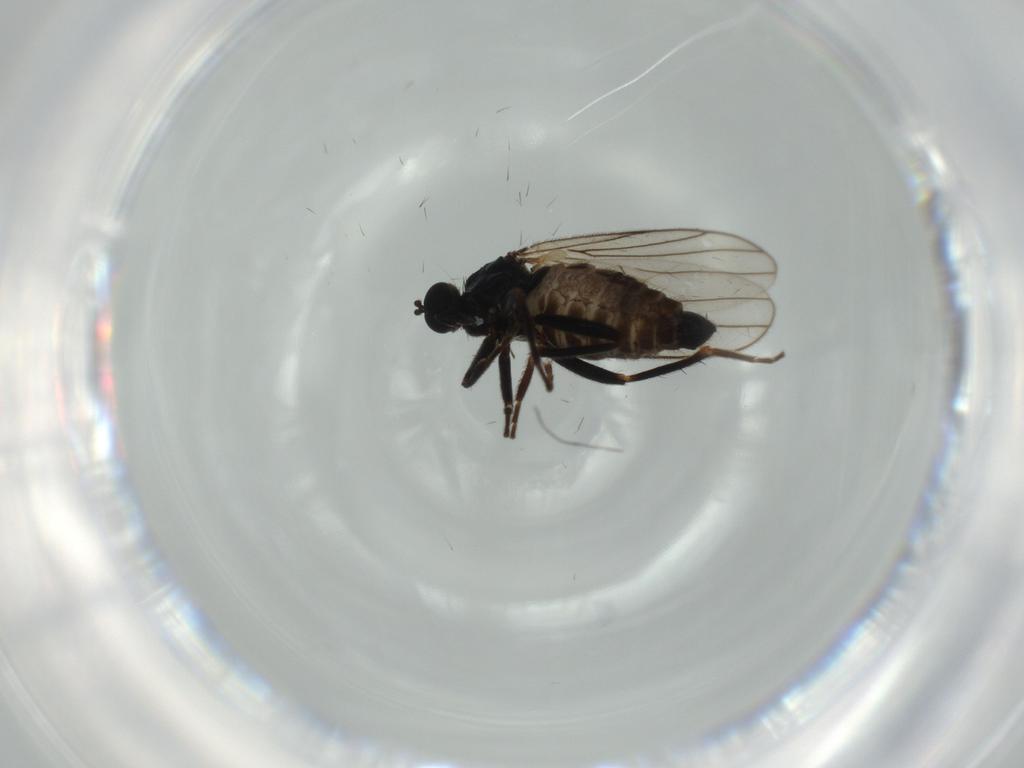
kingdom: Animalia
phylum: Arthropoda
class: Insecta
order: Diptera
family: Hybotidae
